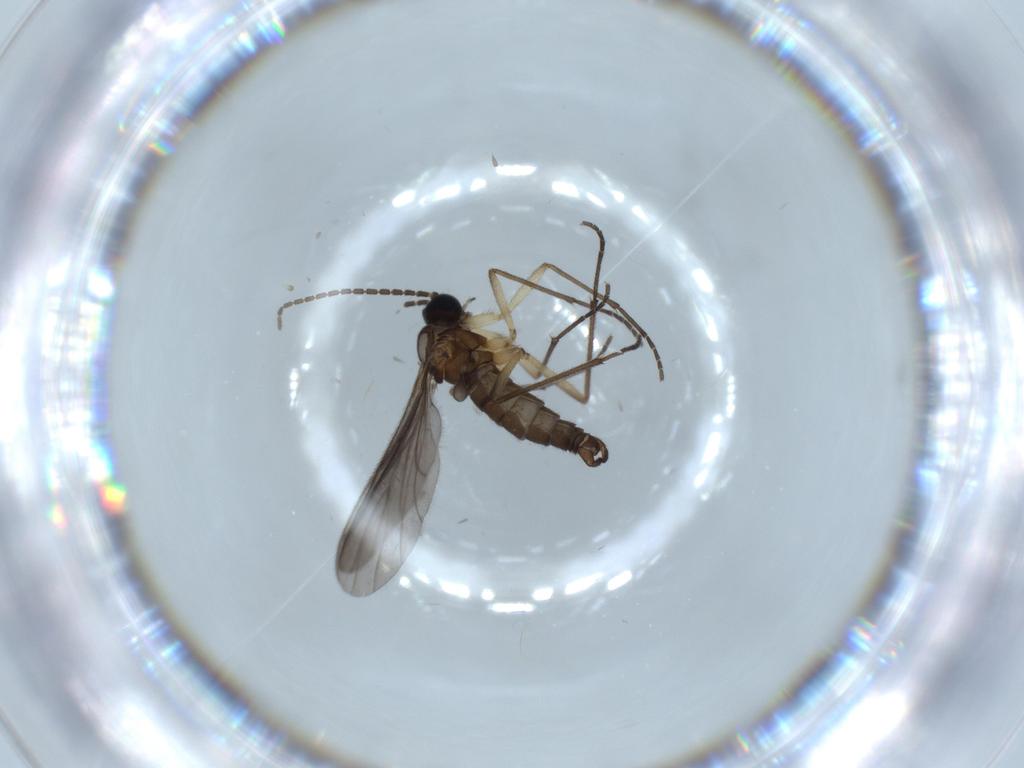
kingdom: Animalia
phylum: Arthropoda
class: Insecta
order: Diptera
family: Sciaridae
